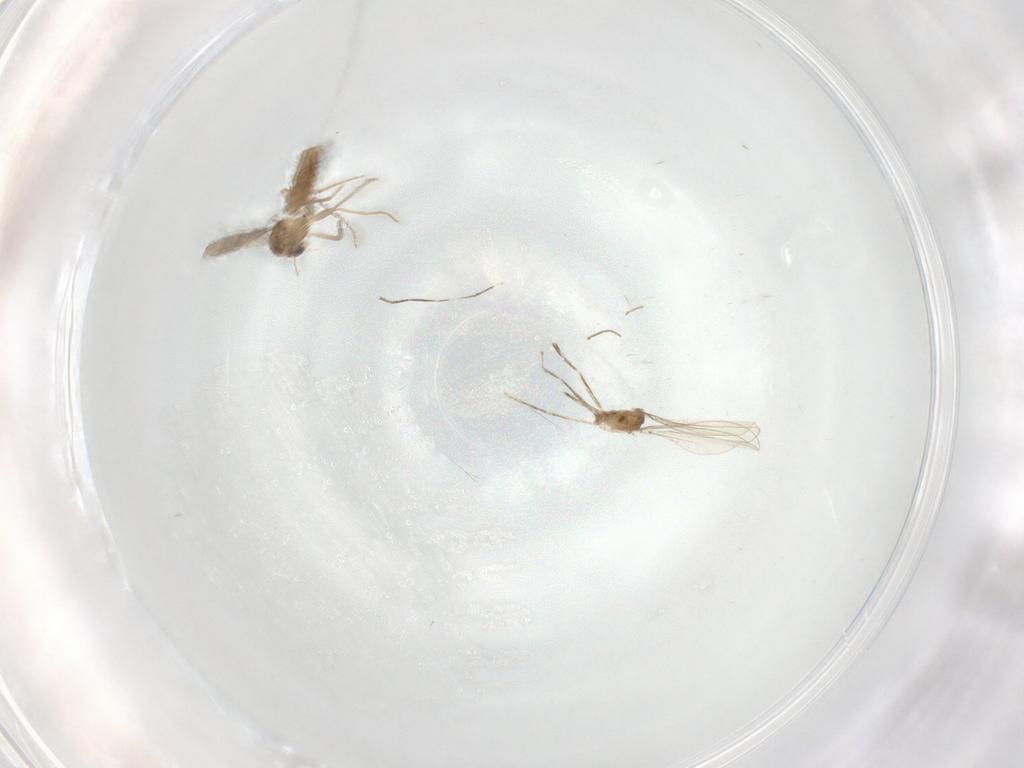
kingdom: Animalia
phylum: Arthropoda
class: Insecta
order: Diptera
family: Chironomidae
